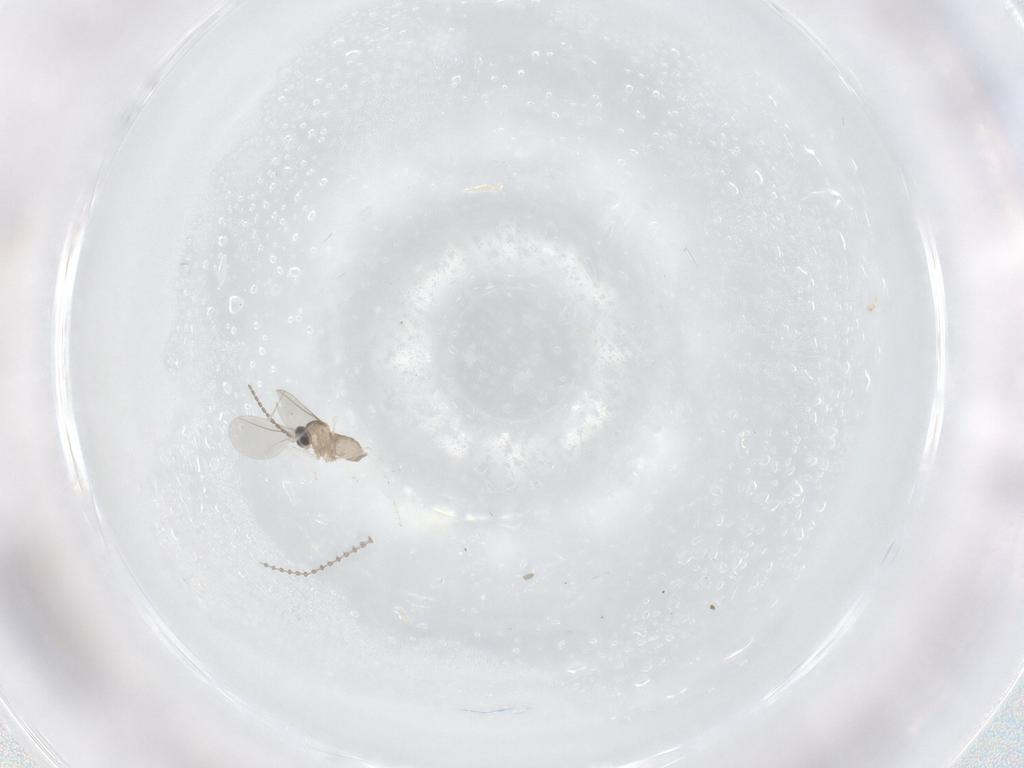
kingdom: Animalia
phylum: Arthropoda
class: Insecta
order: Diptera
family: Cecidomyiidae
